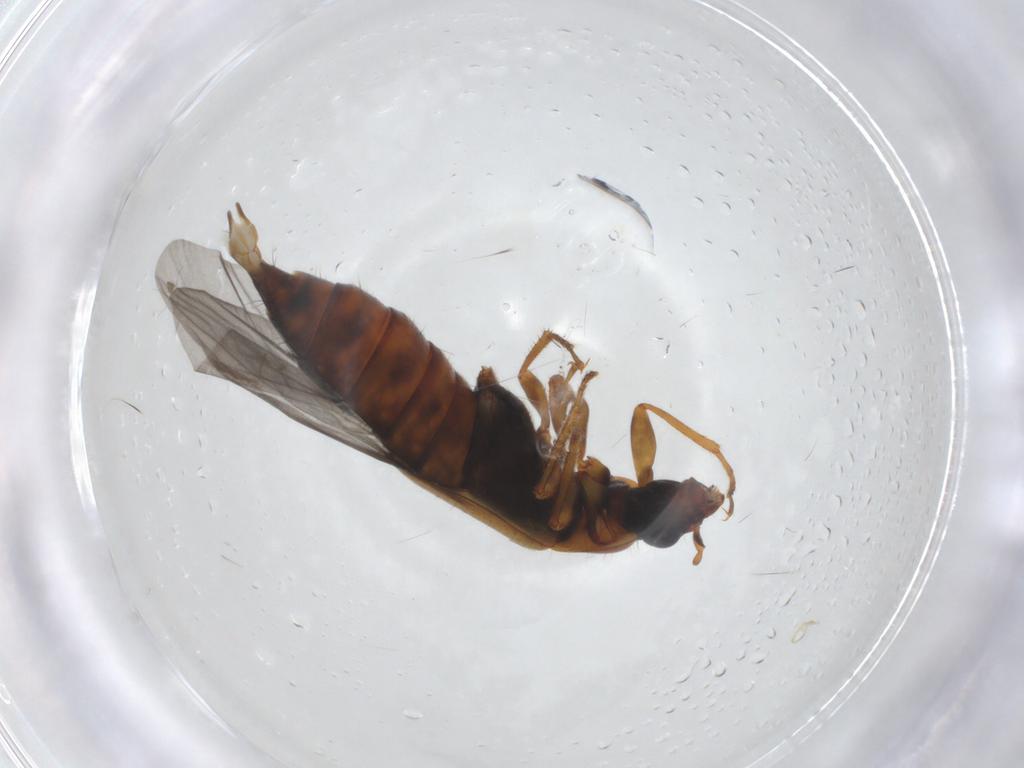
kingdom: Animalia
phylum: Arthropoda
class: Insecta
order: Coleoptera
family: Staphylinidae
